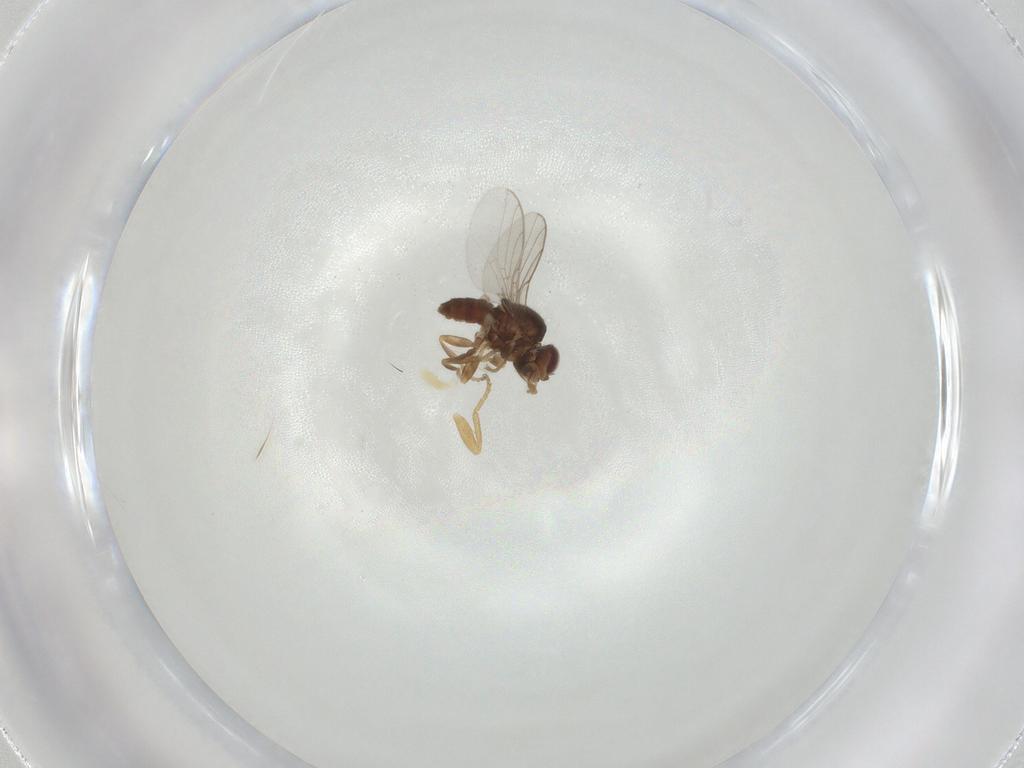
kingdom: Animalia
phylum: Arthropoda
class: Insecta
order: Diptera
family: Chloropidae
